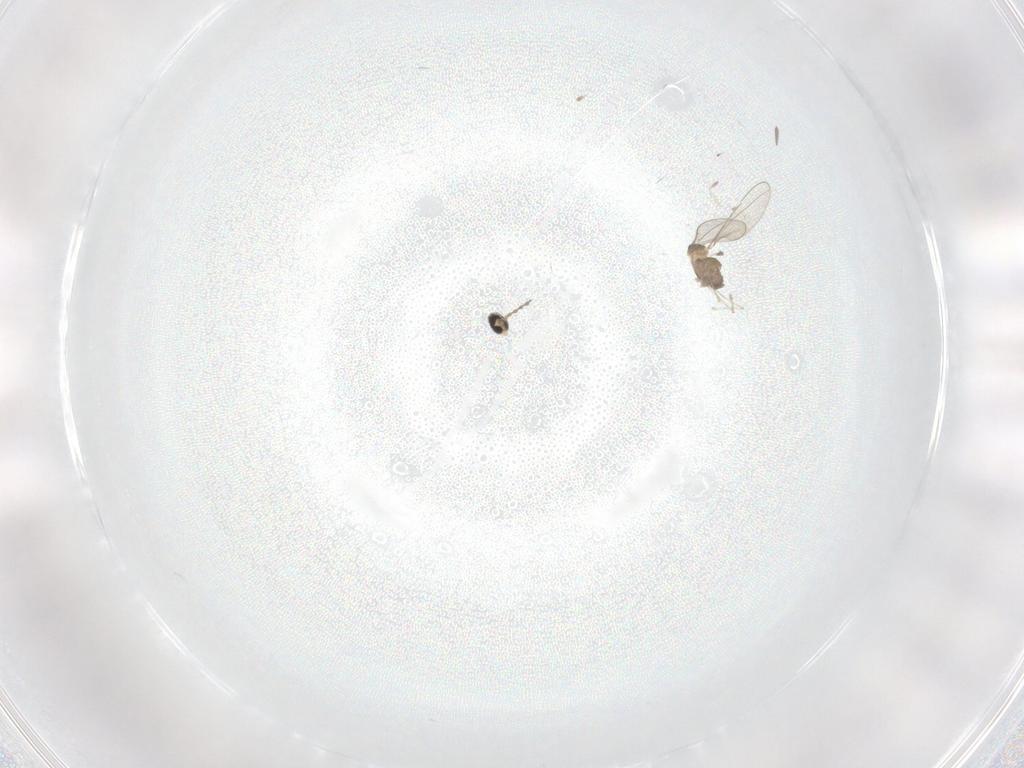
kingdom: Animalia
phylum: Arthropoda
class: Insecta
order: Diptera
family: Cecidomyiidae
